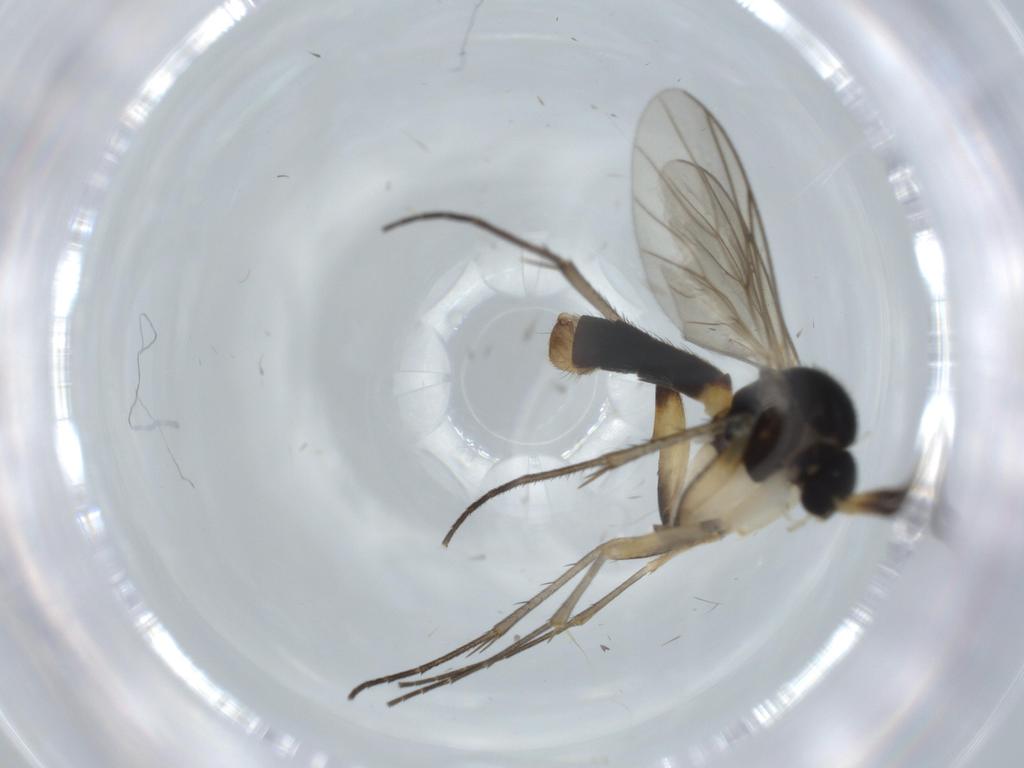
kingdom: Animalia
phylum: Arthropoda
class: Insecta
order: Diptera
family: Mycetophilidae
